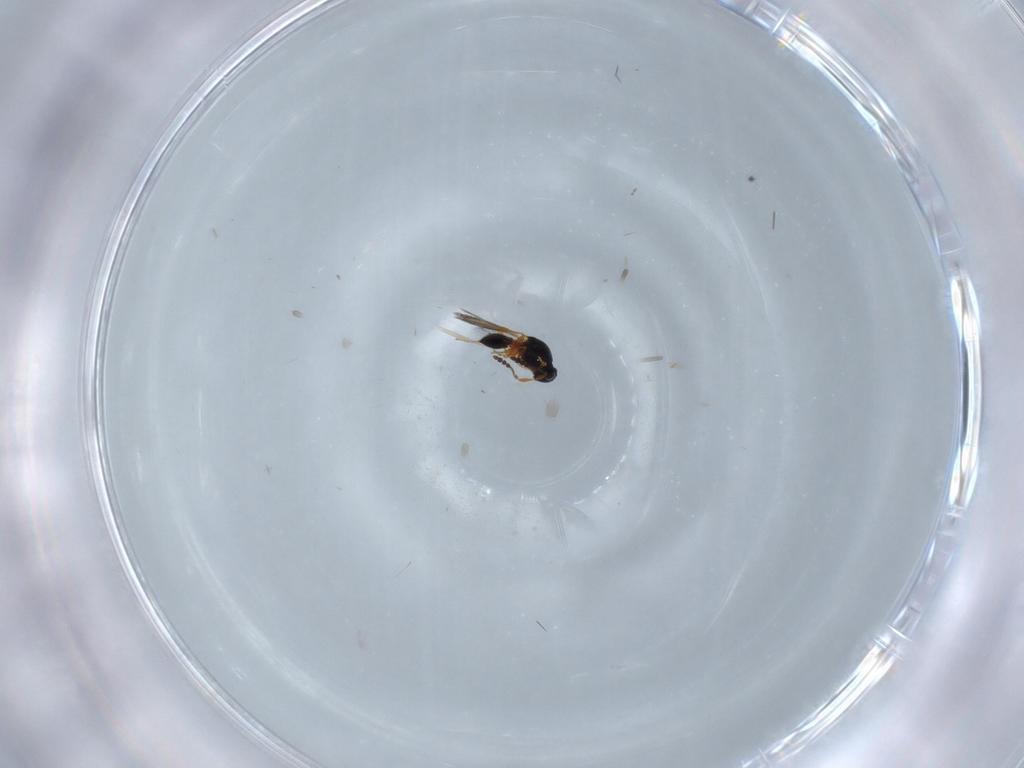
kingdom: Animalia
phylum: Arthropoda
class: Insecta
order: Hymenoptera
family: Platygastridae
